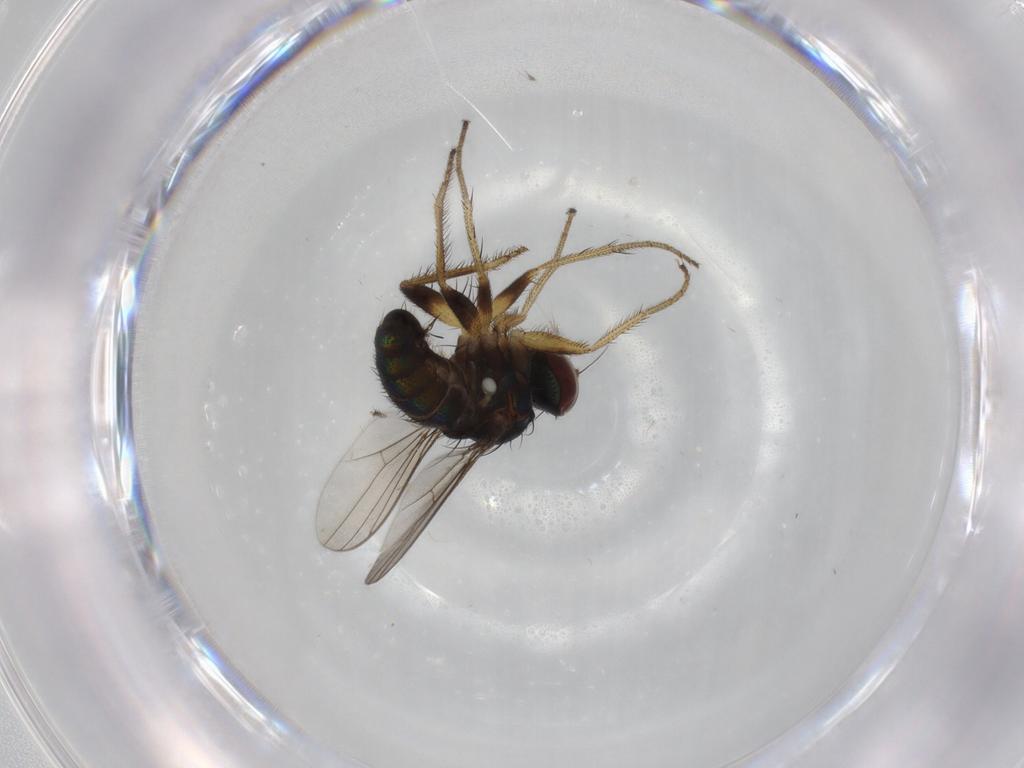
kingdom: Animalia
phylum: Arthropoda
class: Insecta
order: Diptera
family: Dolichopodidae
